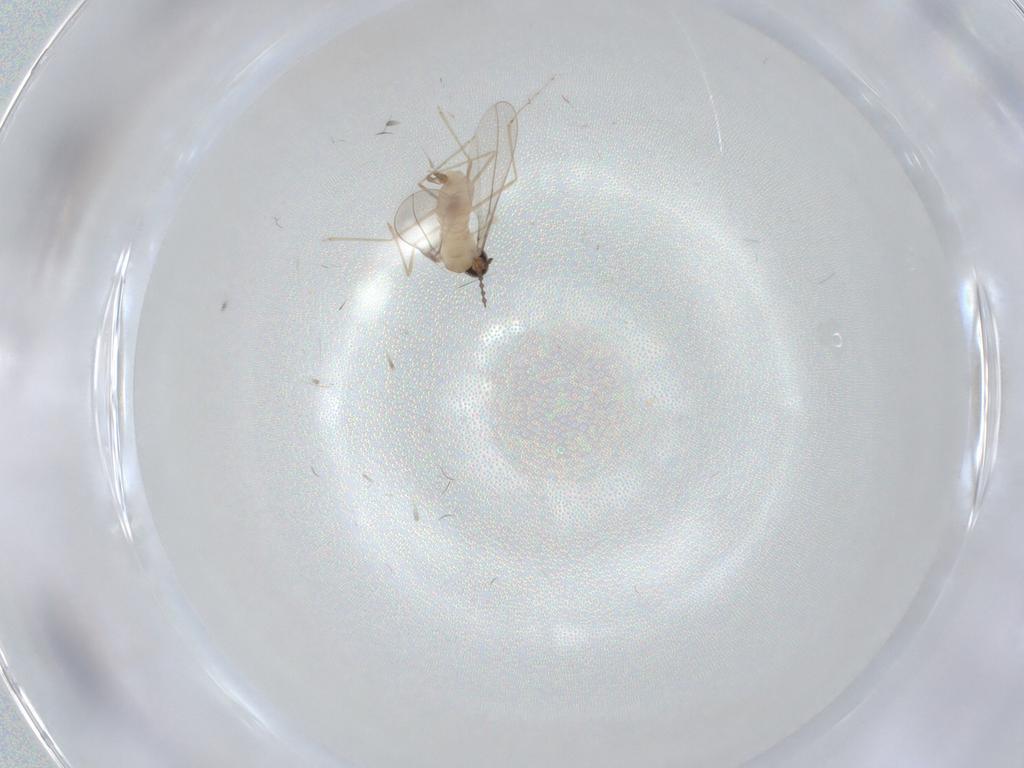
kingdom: Animalia
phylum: Arthropoda
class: Insecta
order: Diptera
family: Cecidomyiidae
